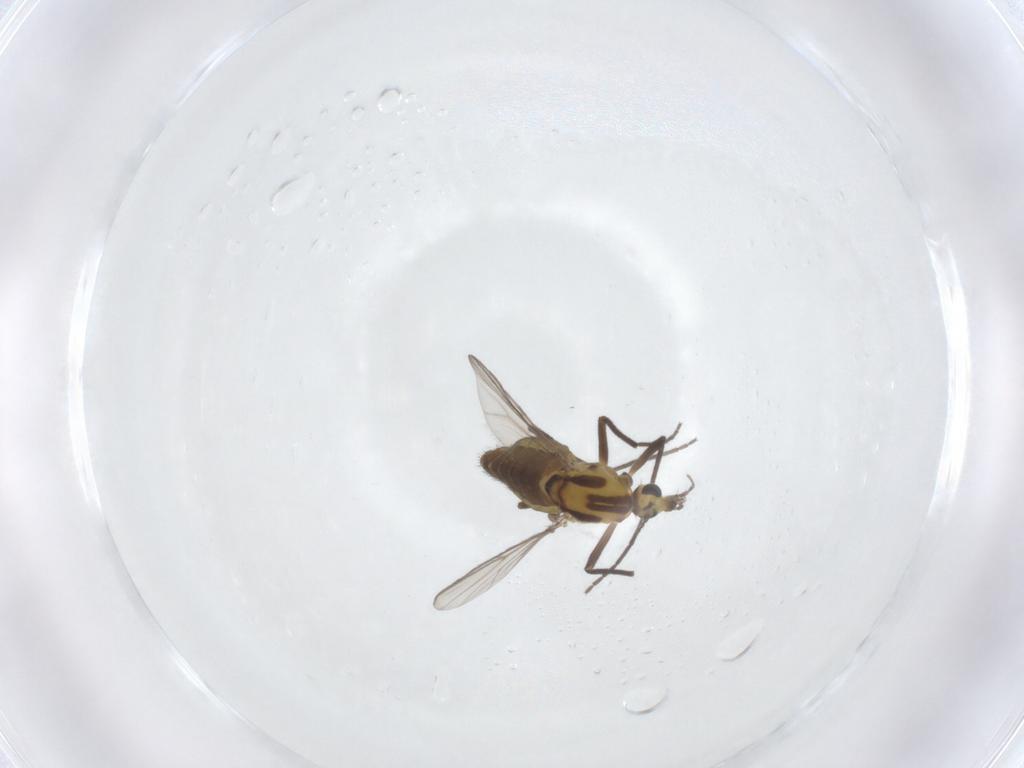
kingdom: Animalia
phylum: Arthropoda
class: Insecta
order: Diptera
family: Chironomidae
